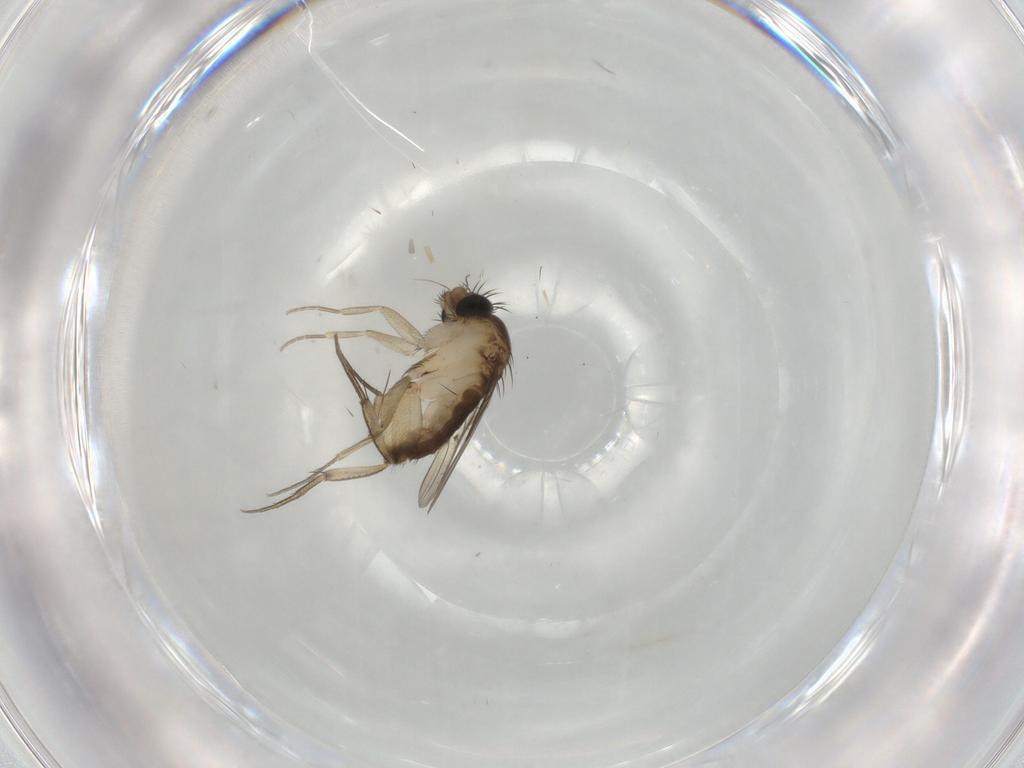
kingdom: Animalia
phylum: Arthropoda
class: Insecta
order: Diptera
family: Phoridae
